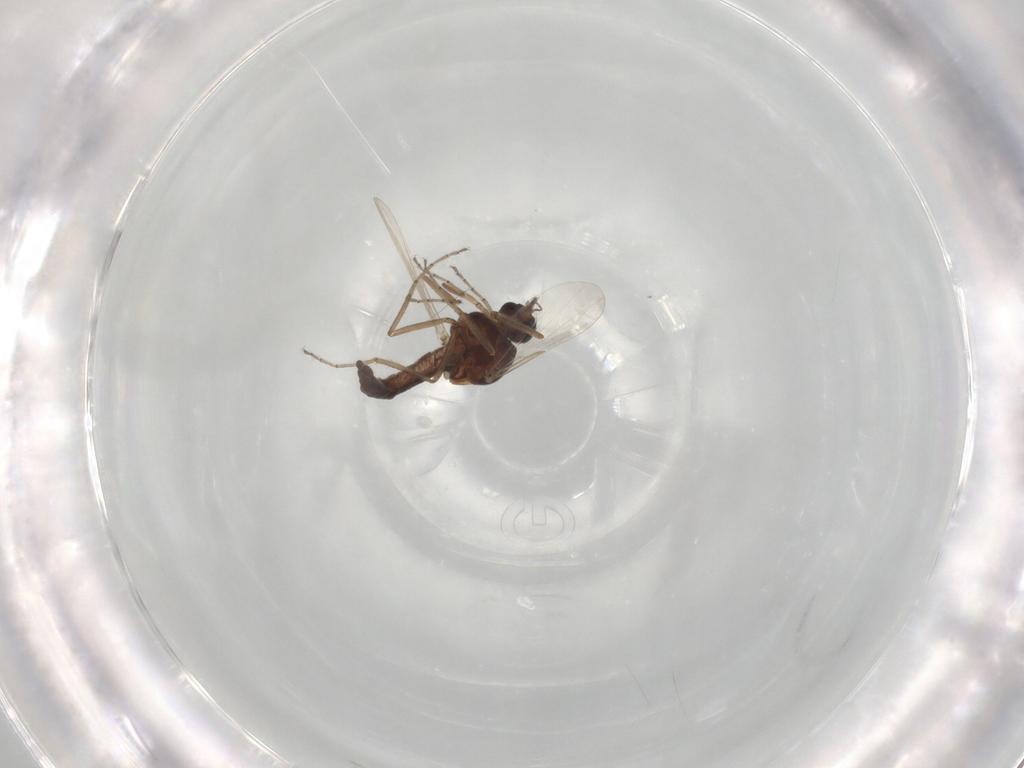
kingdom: Animalia
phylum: Arthropoda
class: Insecta
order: Diptera
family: Ceratopogonidae
